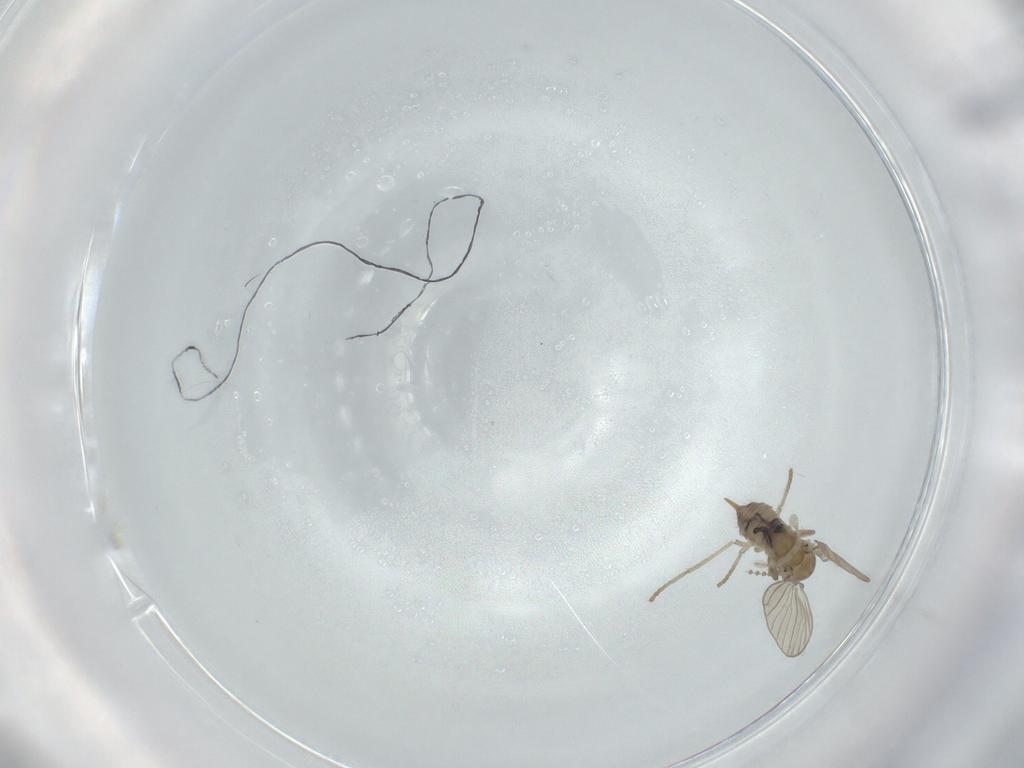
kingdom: Animalia
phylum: Arthropoda
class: Insecta
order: Diptera
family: Psychodidae
